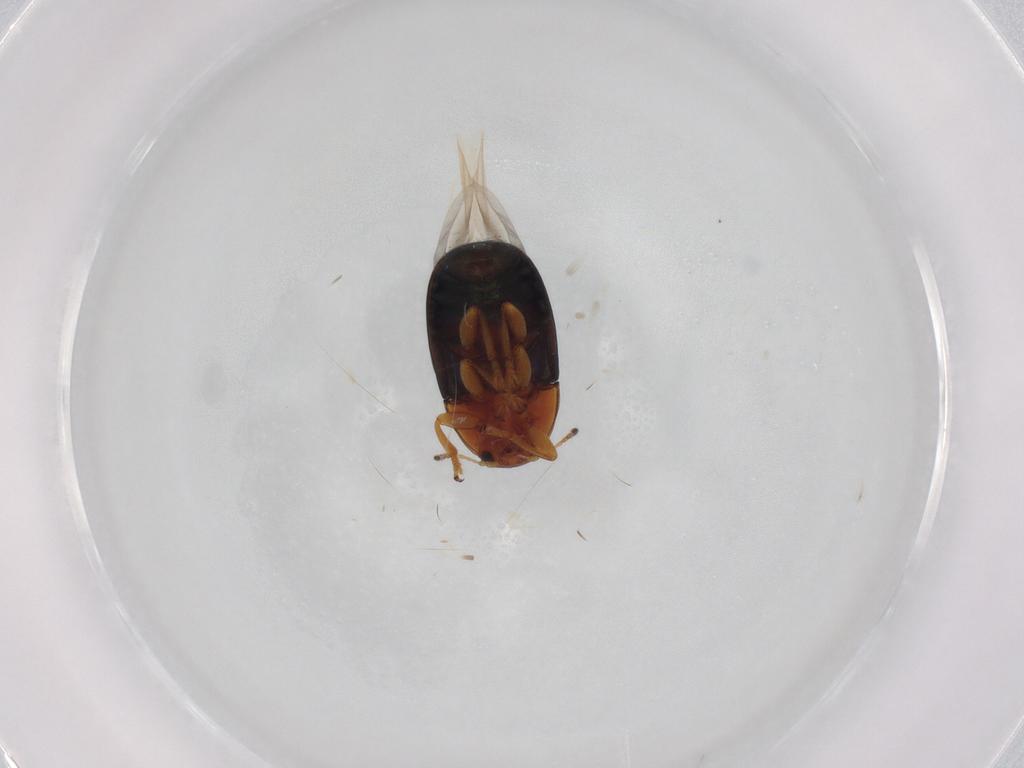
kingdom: Animalia
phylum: Arthropoda
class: Insecta
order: Coleoptera
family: Chrysomelidae
